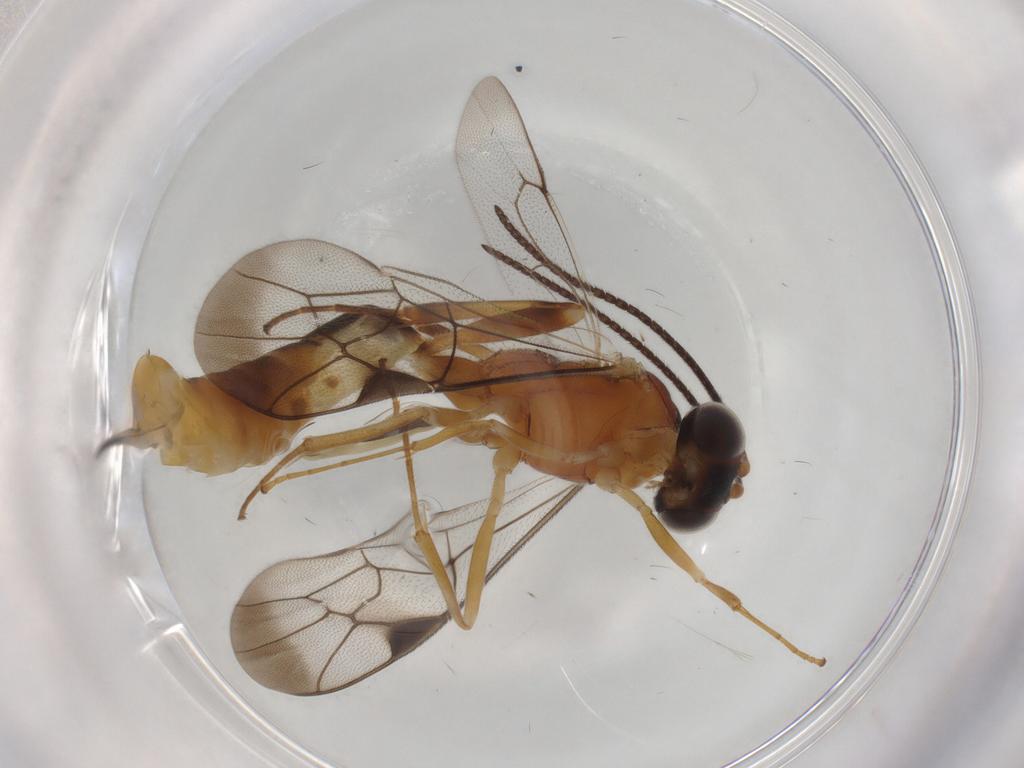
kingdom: Animalia
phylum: Arthropoda
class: Insecta
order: Hymenoptera
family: Ichneumonidae
